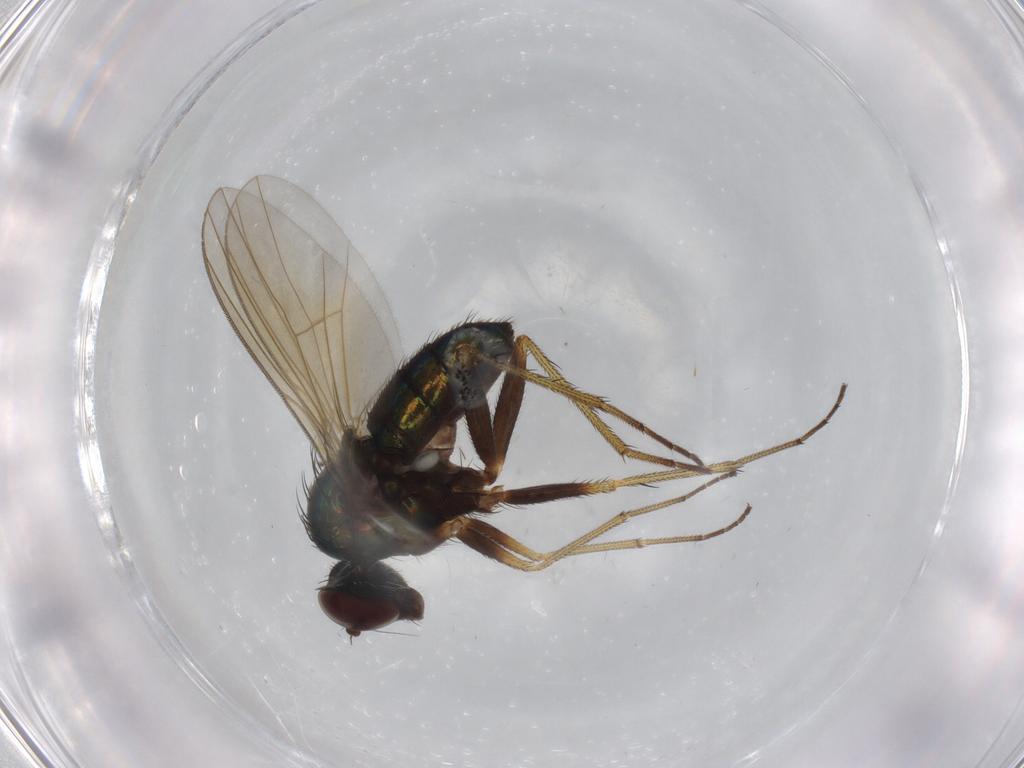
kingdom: Animalia
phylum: Arthropoda
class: Insecta
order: Diptera
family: Dolichopodidae
